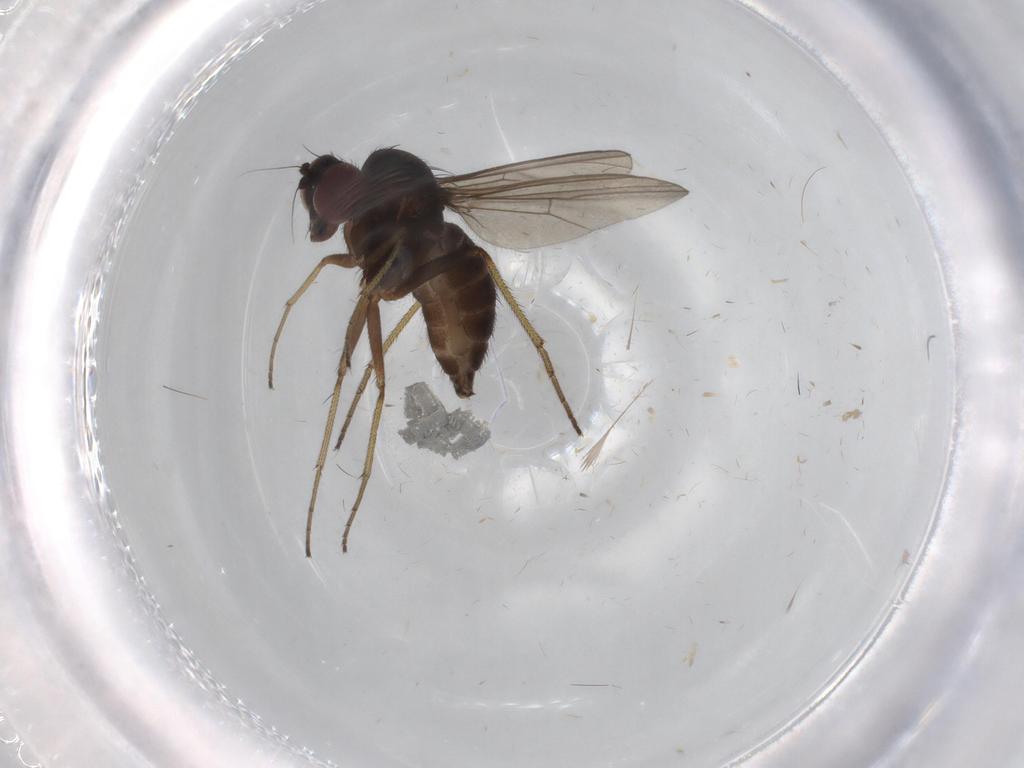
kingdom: Animalia
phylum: Arthropoda
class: Insecta
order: Diptera
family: Dolichopodidae
